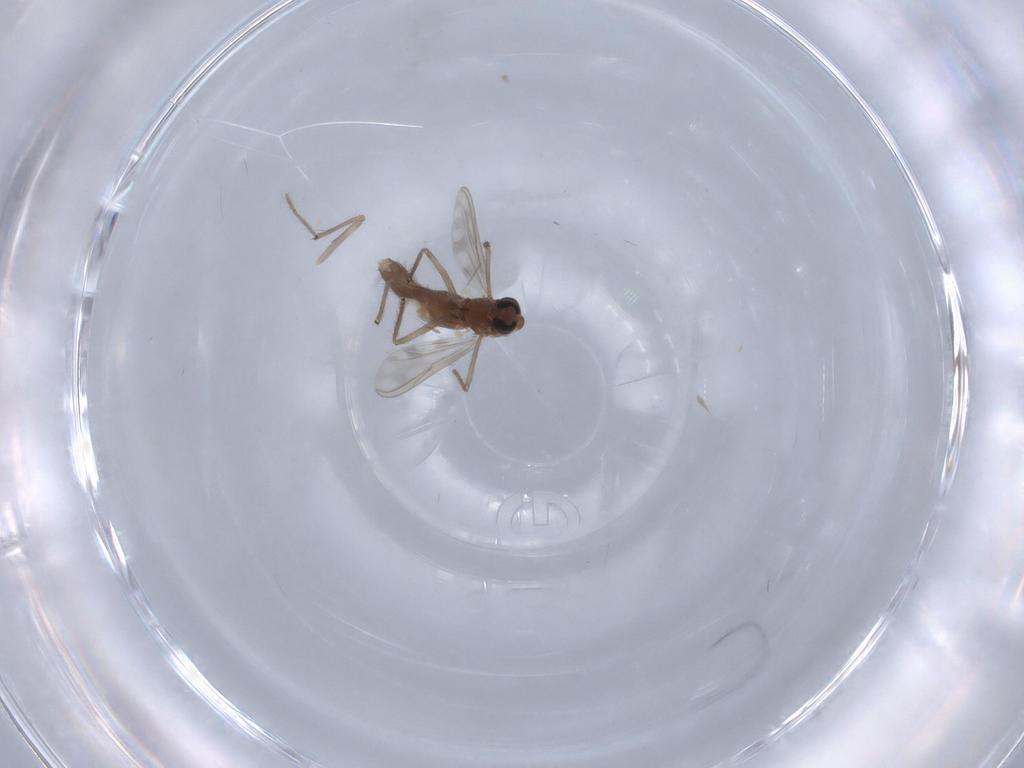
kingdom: Animalia
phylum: Arthropoda
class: Insecta
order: Diptera
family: Chironomidae
